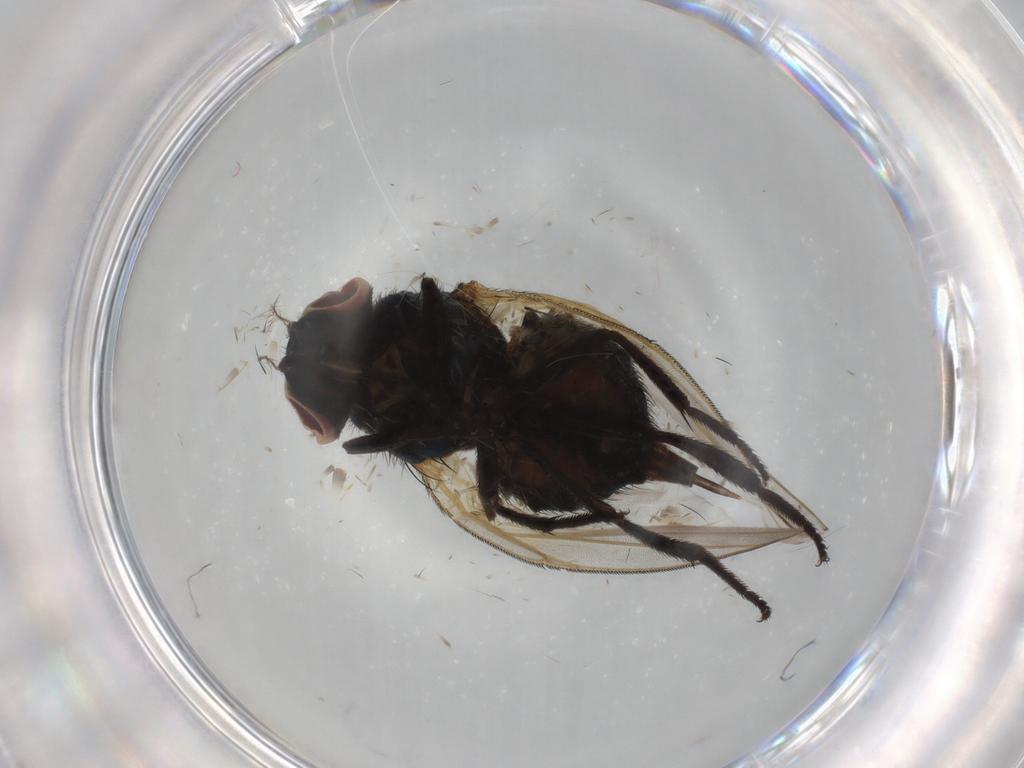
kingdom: Animalia
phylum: Arthropoda
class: Insecta
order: Diptera
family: Lonchaeidae
